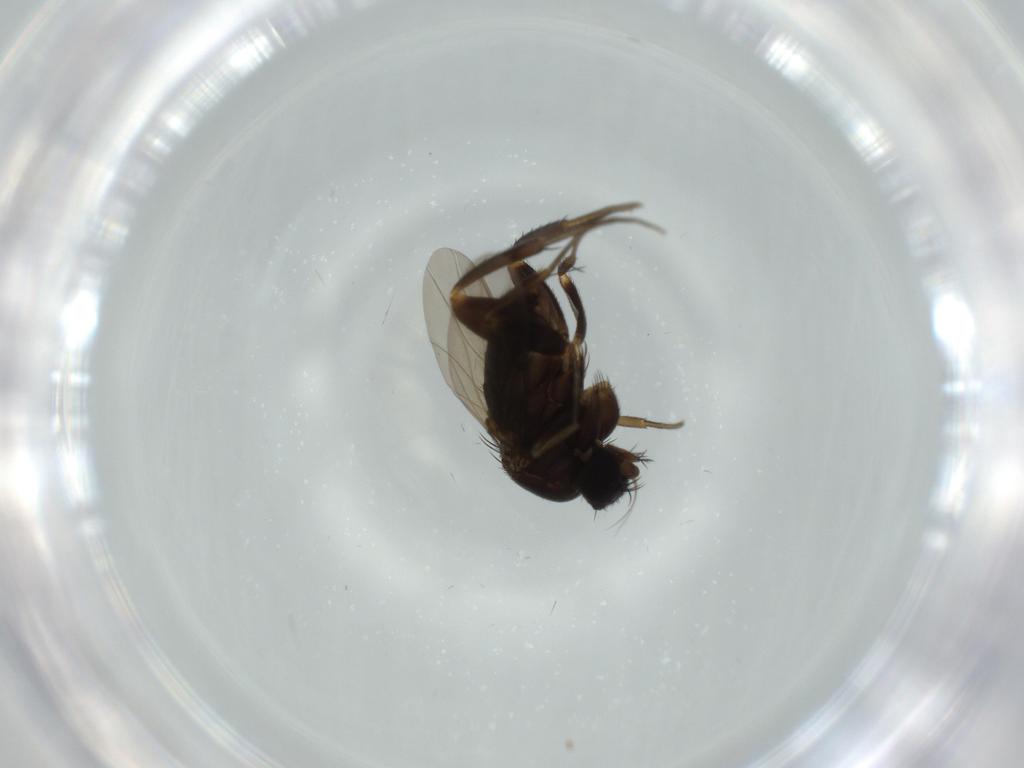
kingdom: Animalia
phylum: Arthropoda
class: Insecta
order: Diptera
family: Phoridae
